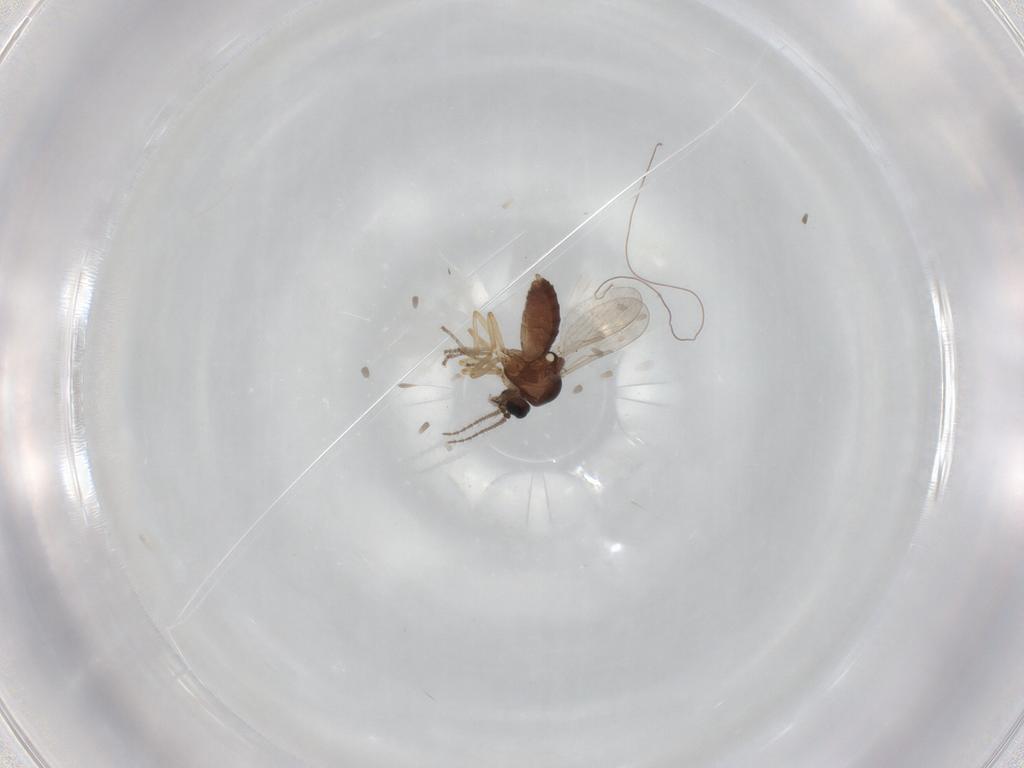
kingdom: Animalia
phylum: Arthropoda
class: Insecta
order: Diptera
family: Ceratopogonidae
